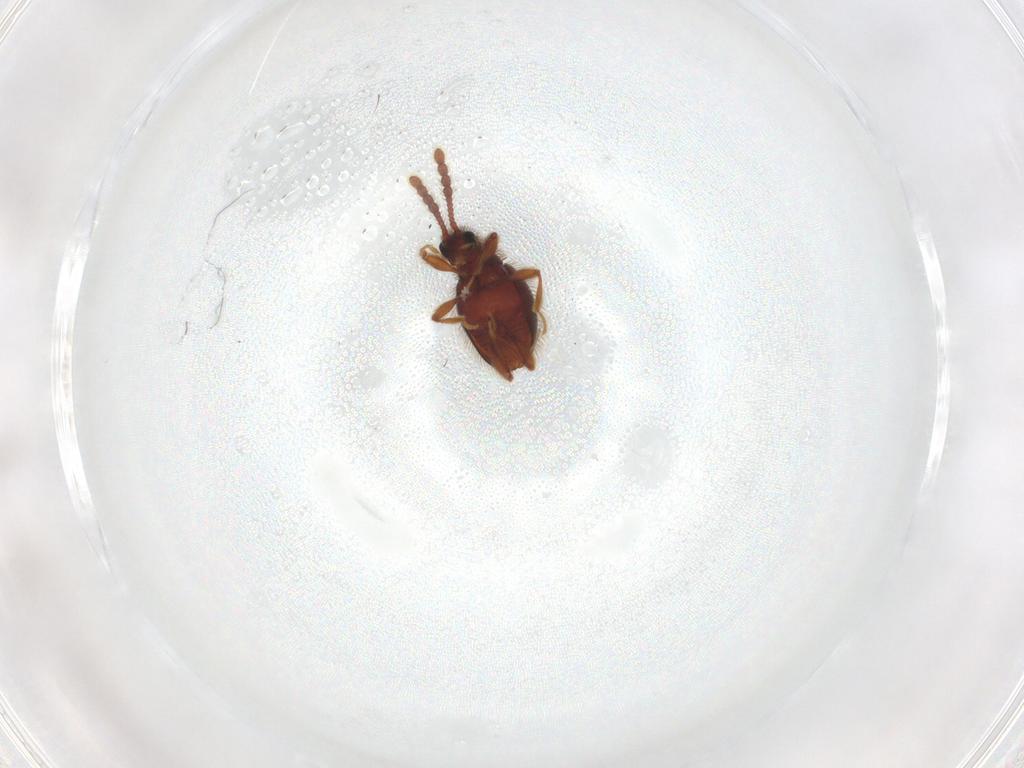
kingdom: Animalia
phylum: Arthropoda
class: Insecta
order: Coleoptera
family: Staphylinidae
